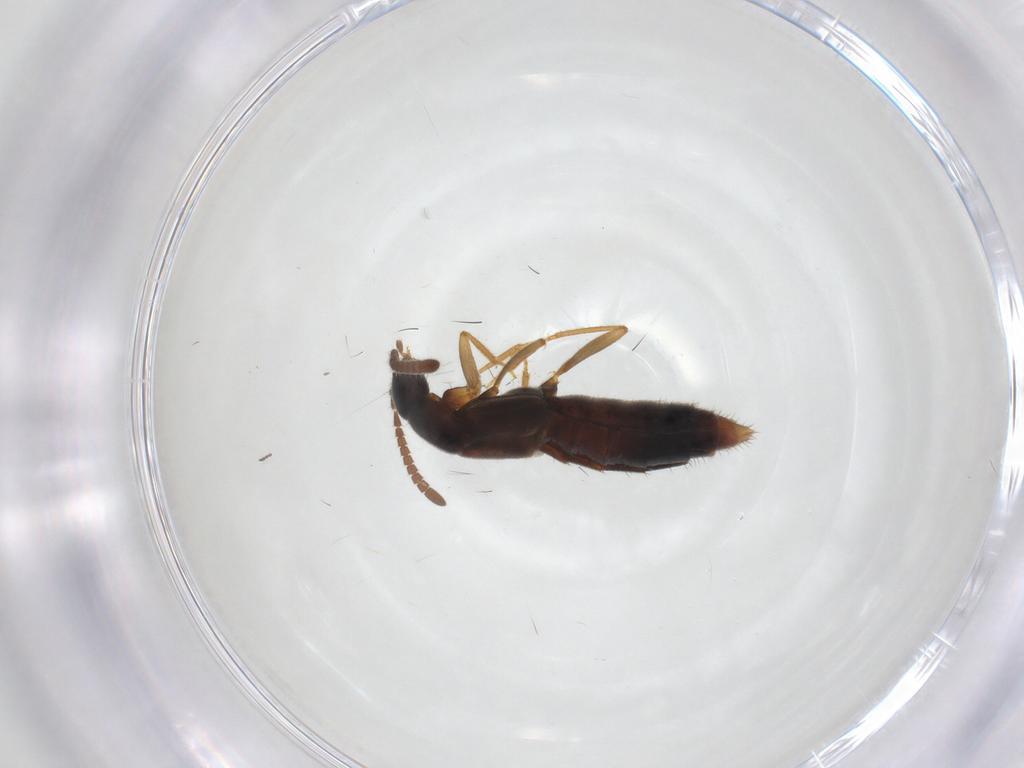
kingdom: Animalia
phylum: Arthropoda
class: Insecta
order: Coleoptera
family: Staphylinidae
